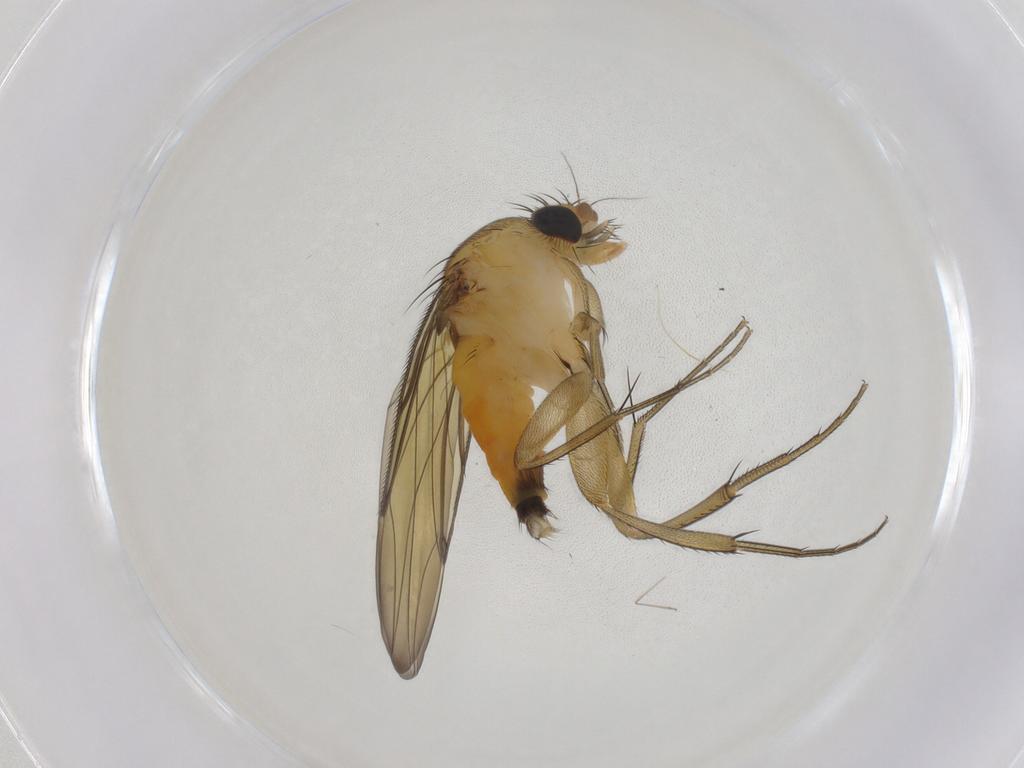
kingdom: Animalia
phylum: Arthropoda
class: Insecta
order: Diptera
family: Phoridae
